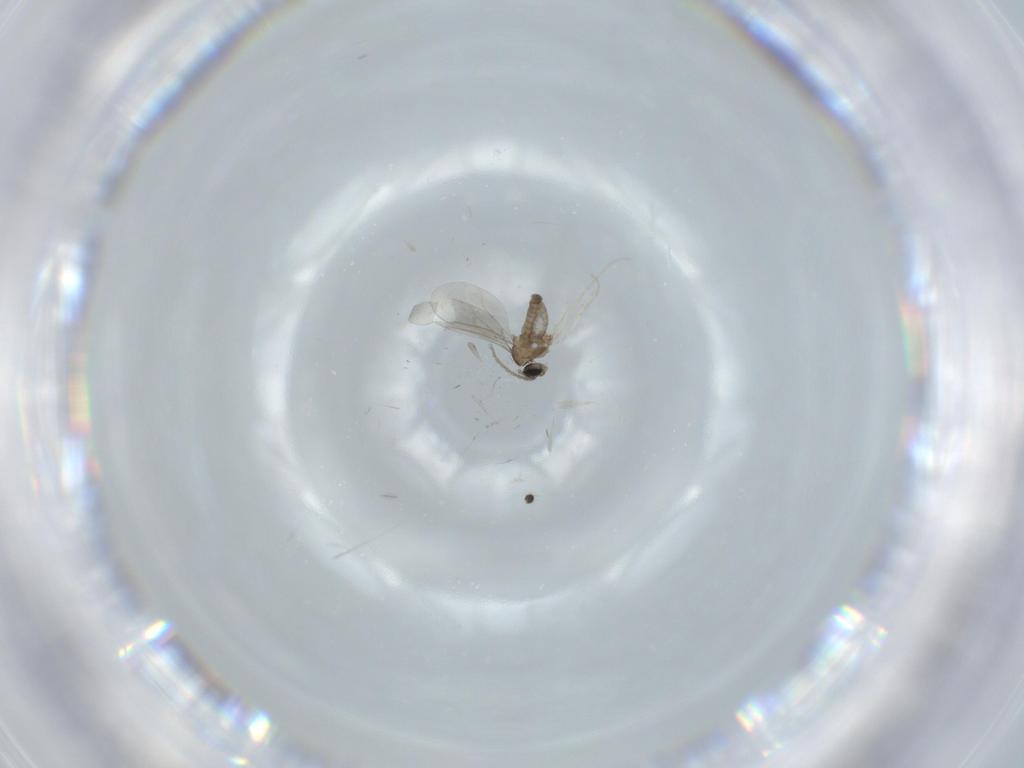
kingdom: Animalia
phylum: Arthropoda
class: Insecta
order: Diptera
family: Cecidomyiidae
